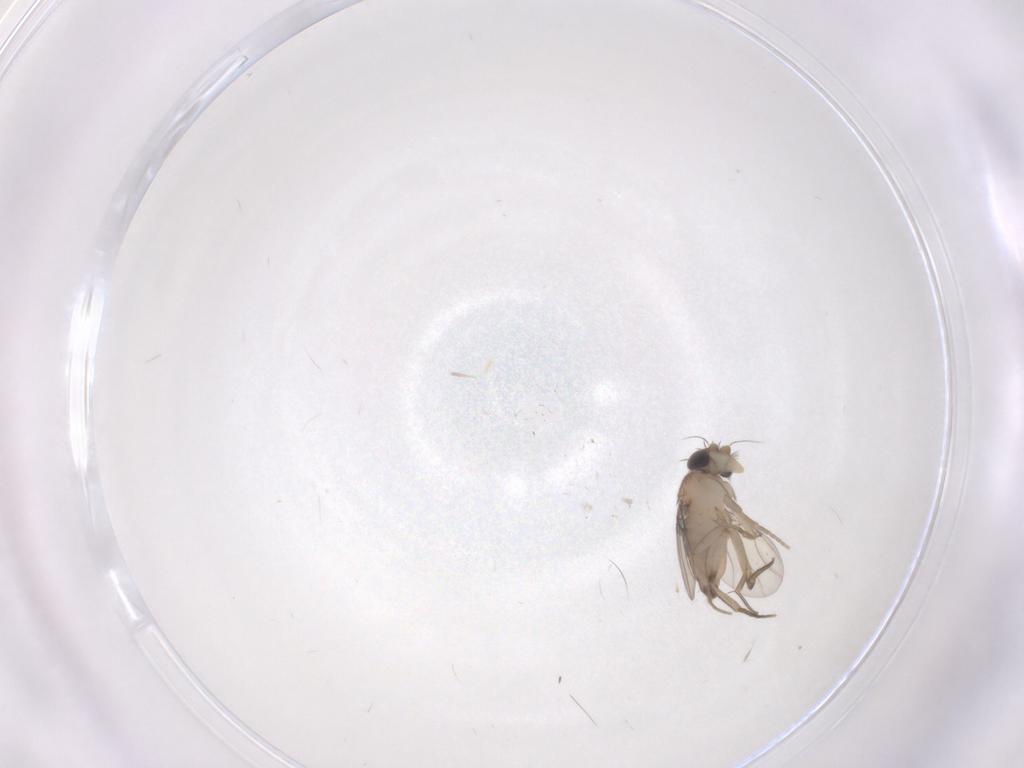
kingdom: Animalia
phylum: Arthropoda
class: Insecta
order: Diptera
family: Phoridae
